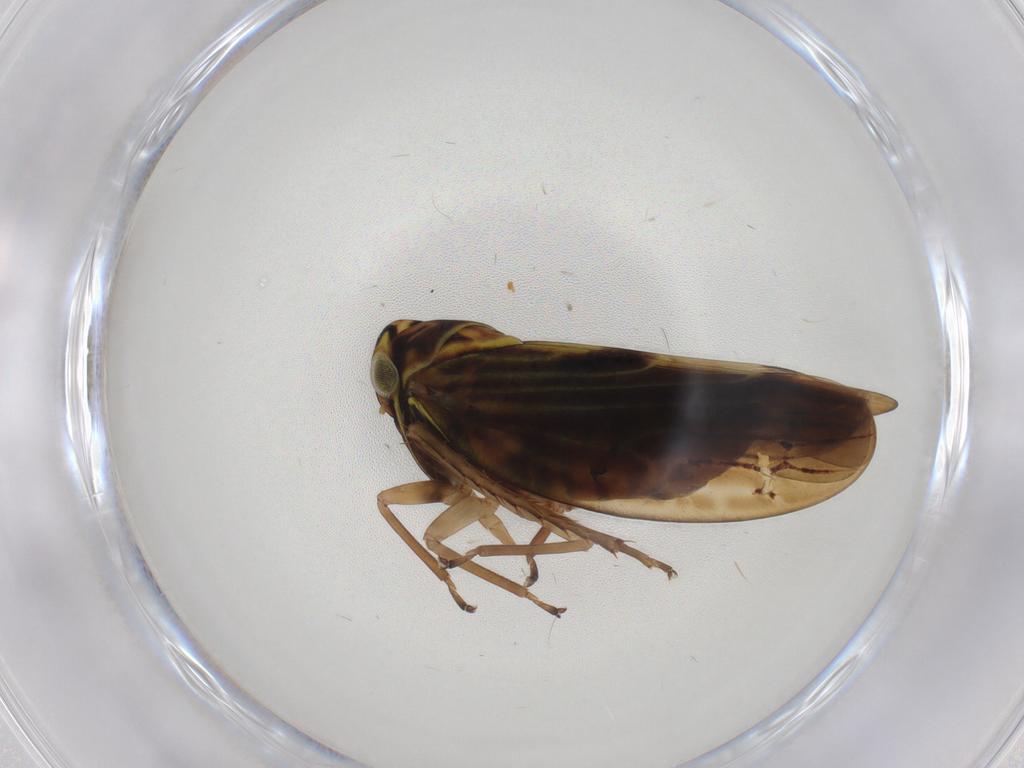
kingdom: Animalia
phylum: Arthropoda
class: Insecta
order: Hemiptera
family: Cicadellidae
